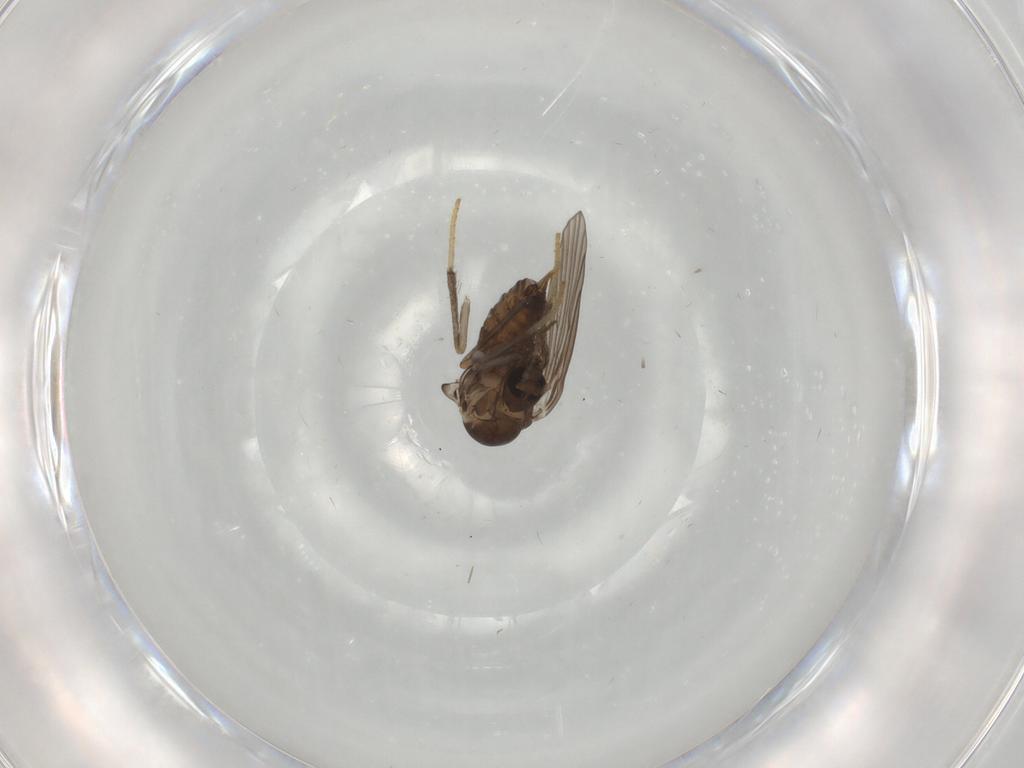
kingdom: Animalia
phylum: Arthropoda
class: Insecta
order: Diptera
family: Psychodidae
